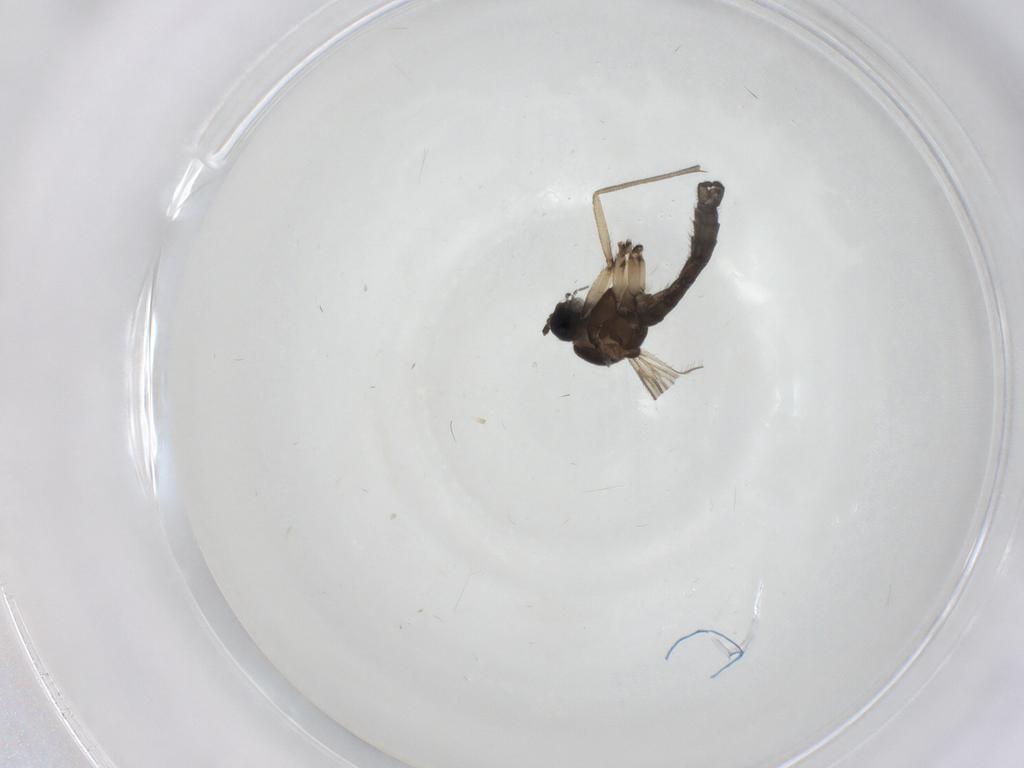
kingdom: Animalia
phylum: Arthropoda
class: Insecta
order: Diptera
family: Sciaridae
